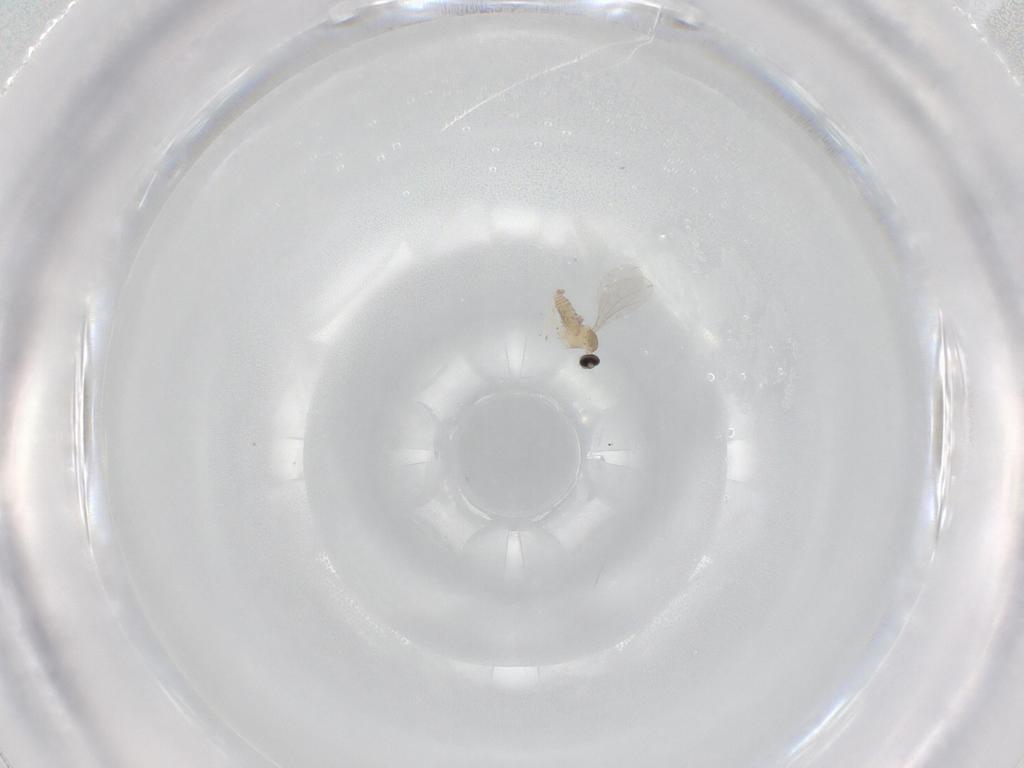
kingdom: Animalia
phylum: Arthropoda
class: Insecta
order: Diptera
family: Cecidomyiidae
